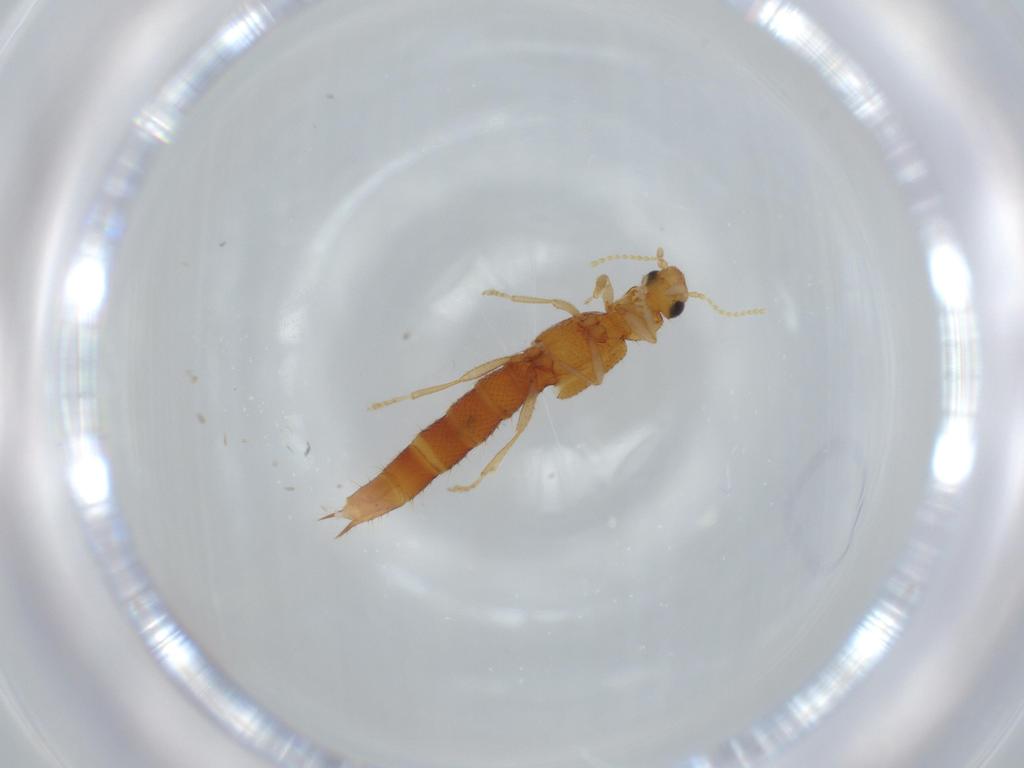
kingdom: Animalia
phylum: Arthropoda
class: Insecta
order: Coleoptera
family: Staphylinidae
